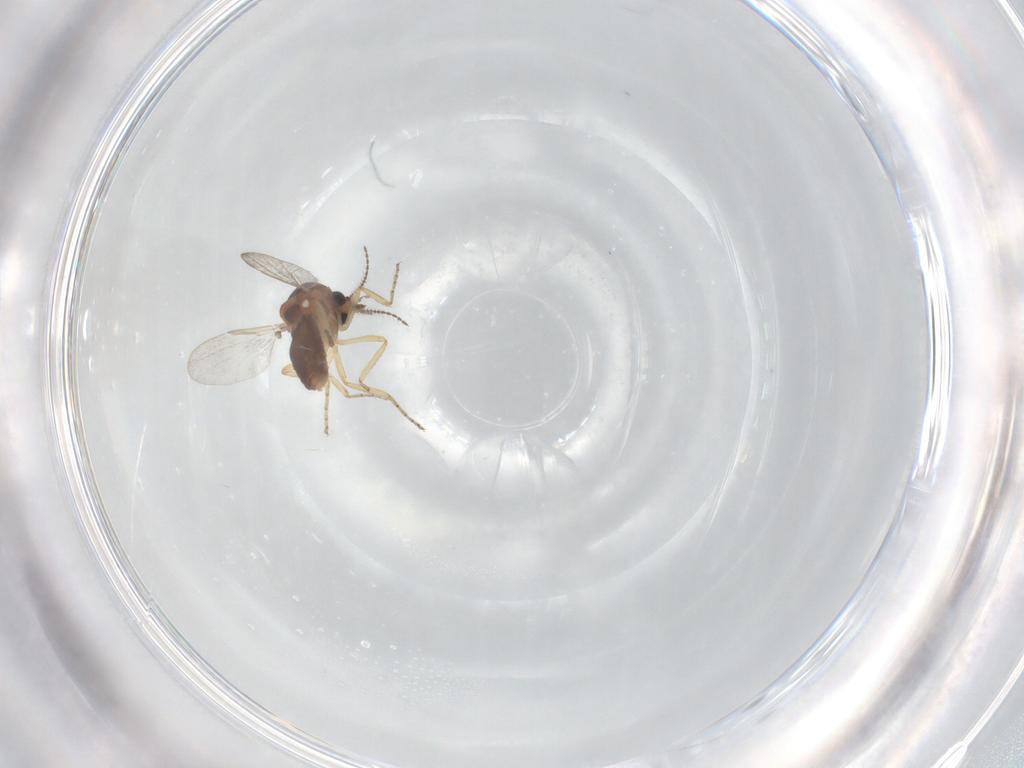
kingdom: Animalia
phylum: Arthropoda
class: Insecta
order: Diptera
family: Ceratopogonidae
